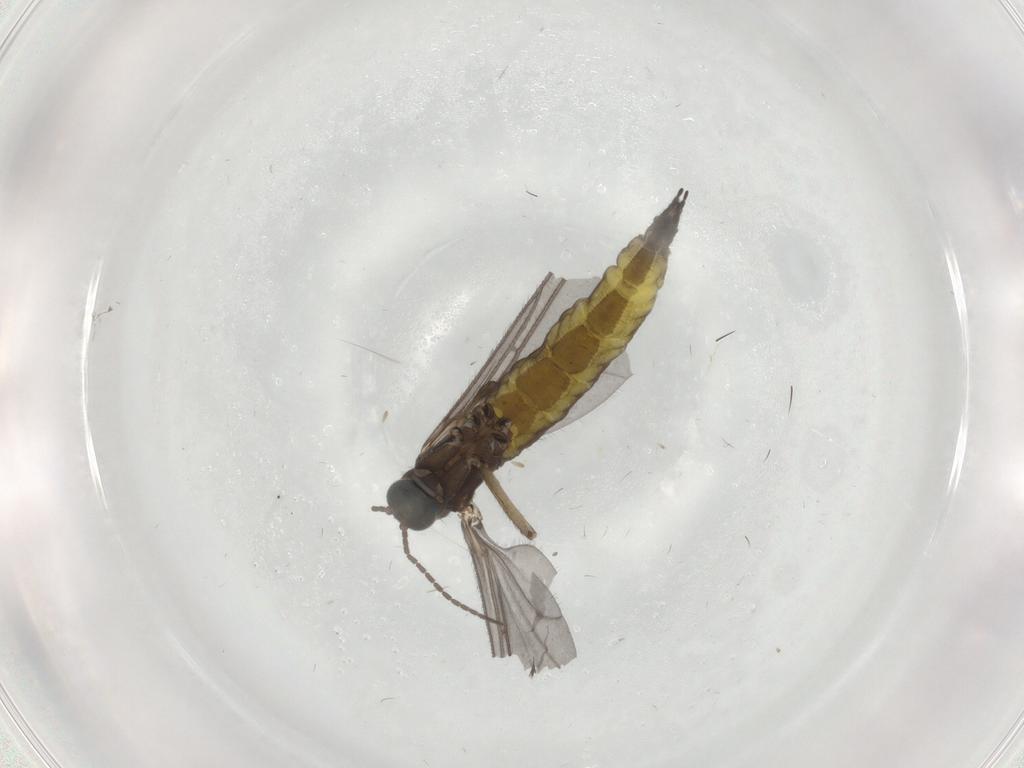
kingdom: Animalia
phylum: Arthropoda
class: Insecta
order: Diptera
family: Sciaridae
